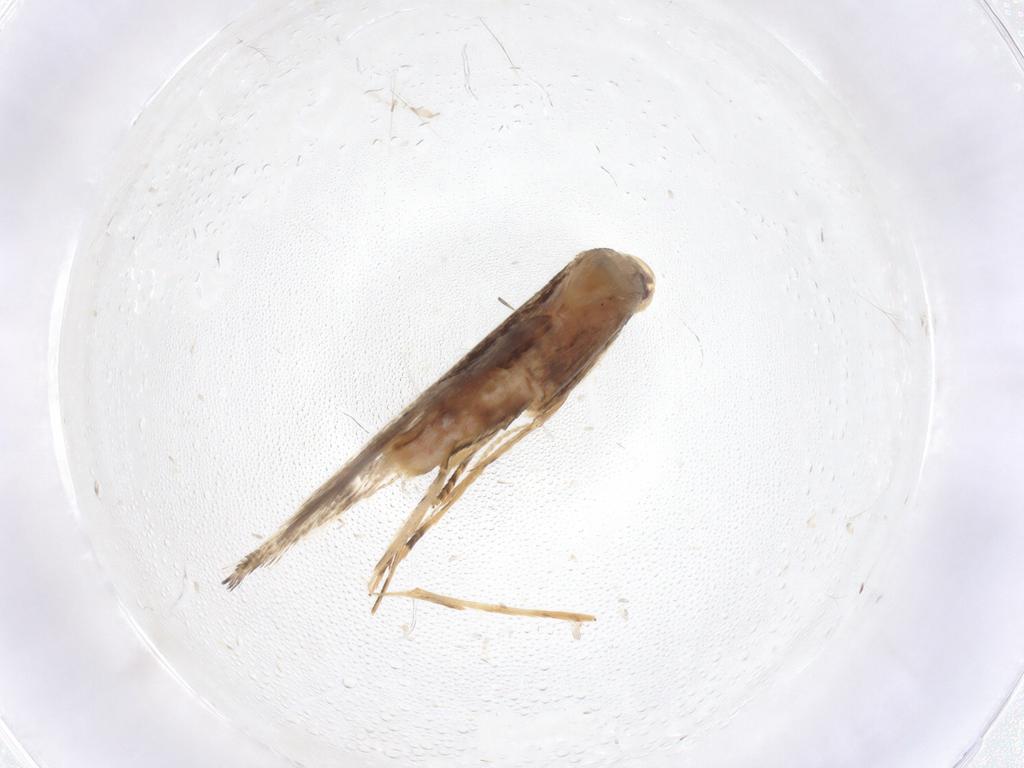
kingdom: Animalia
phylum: Arthropoda
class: Insecta
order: Lepidoptera
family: Cosmopterigidae
